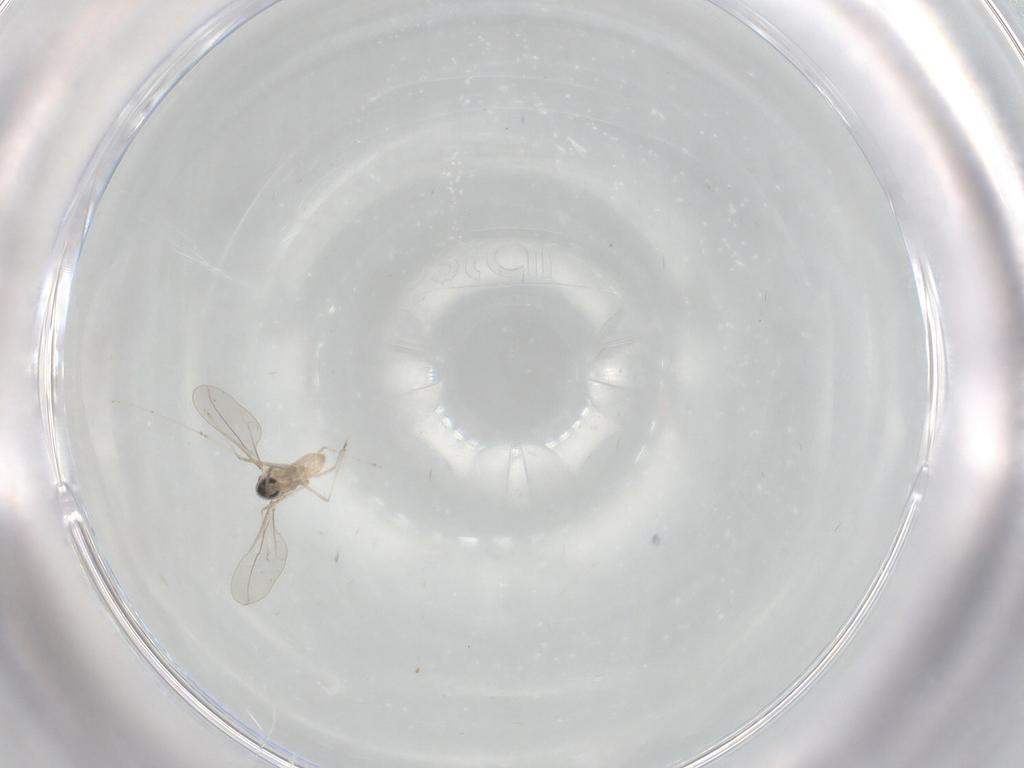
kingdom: Animalia
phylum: Arthropoda
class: Insecta
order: Diptera
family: Cecidomyiidae
